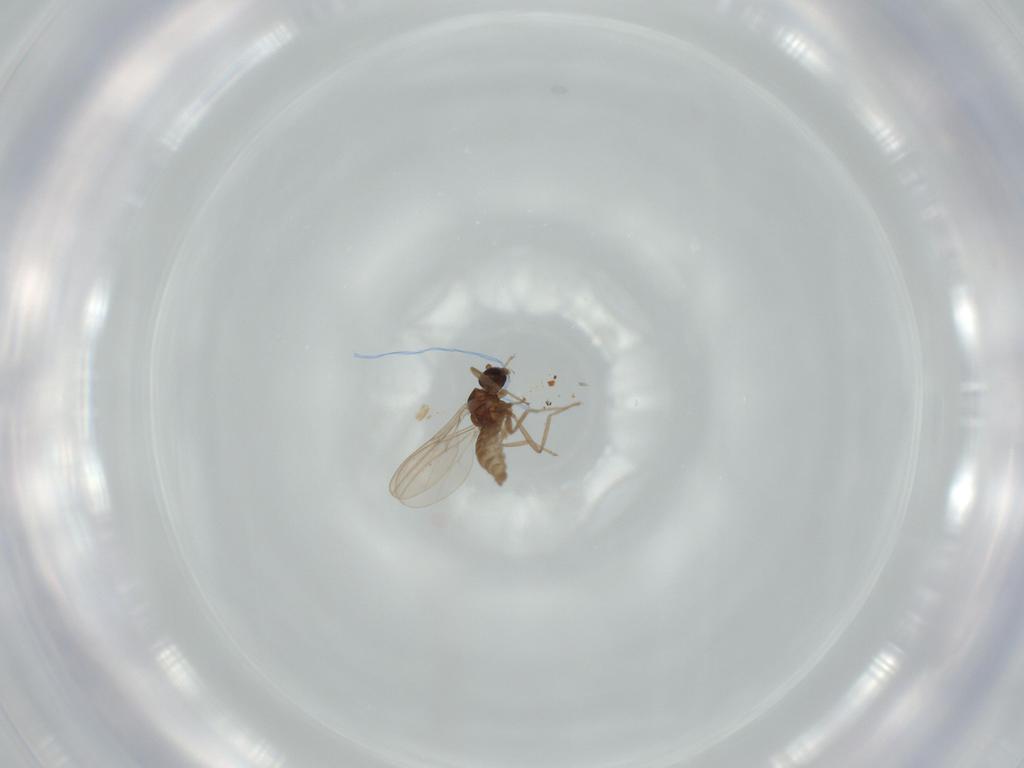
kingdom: Animalia
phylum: Arthropoda
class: Insecta
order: Diptera
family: Cecidomyiidae
